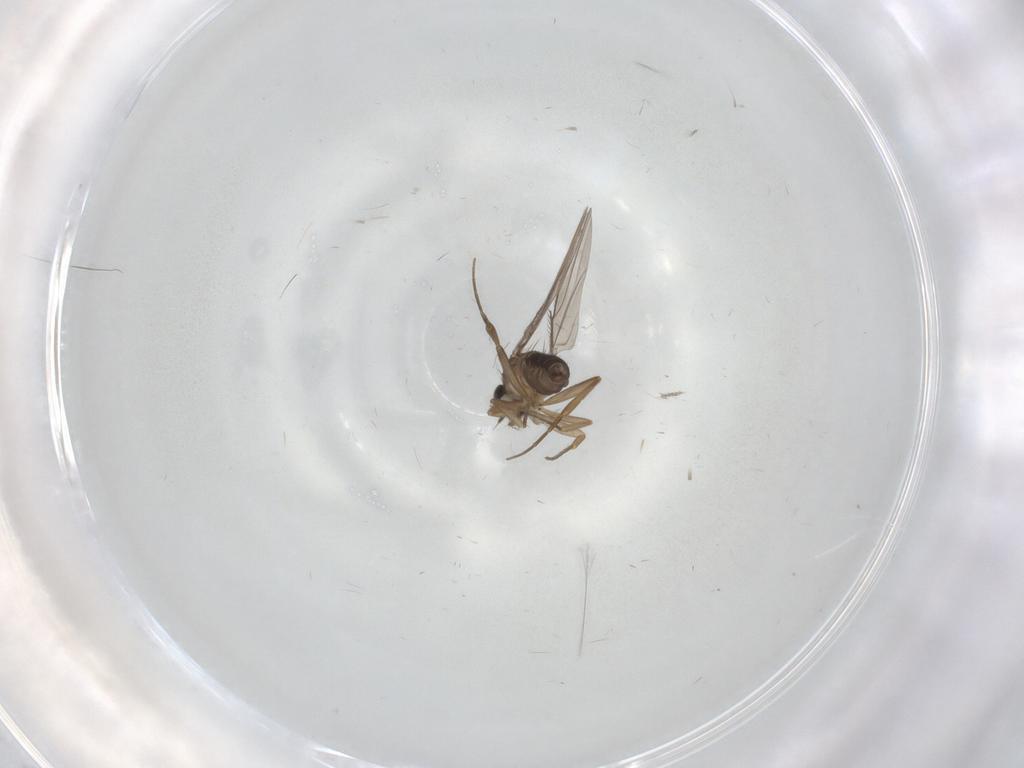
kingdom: Animalia
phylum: Arthropoda
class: Insecta
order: Diptera
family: Phoridae
